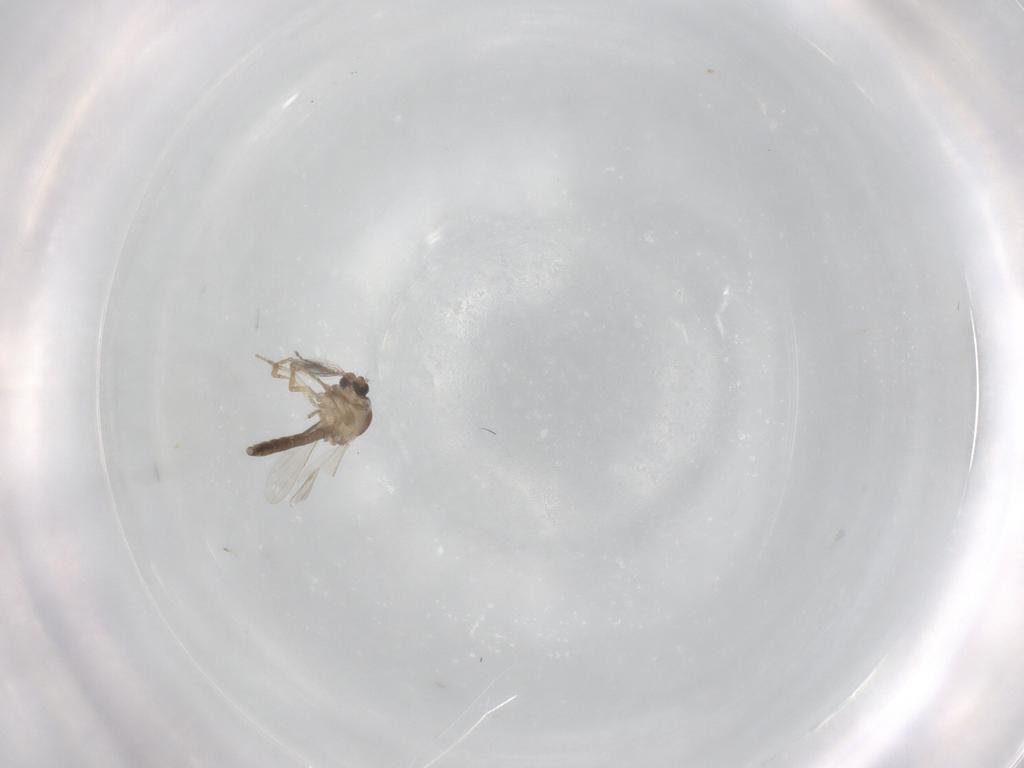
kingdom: Animalia
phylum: Arthropoda
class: Insecta
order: Diptera
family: Ceratopogonidae
